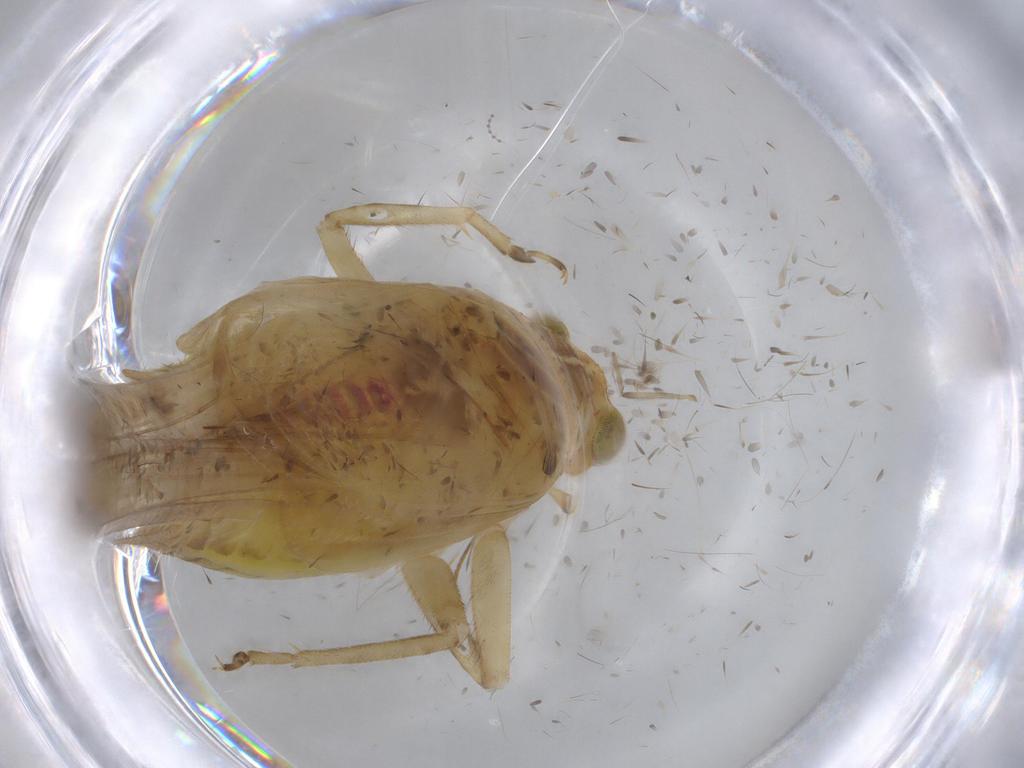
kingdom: Animalia
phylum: Arthropoda
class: Insecta
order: Orthoptera
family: Trigonidiidae
